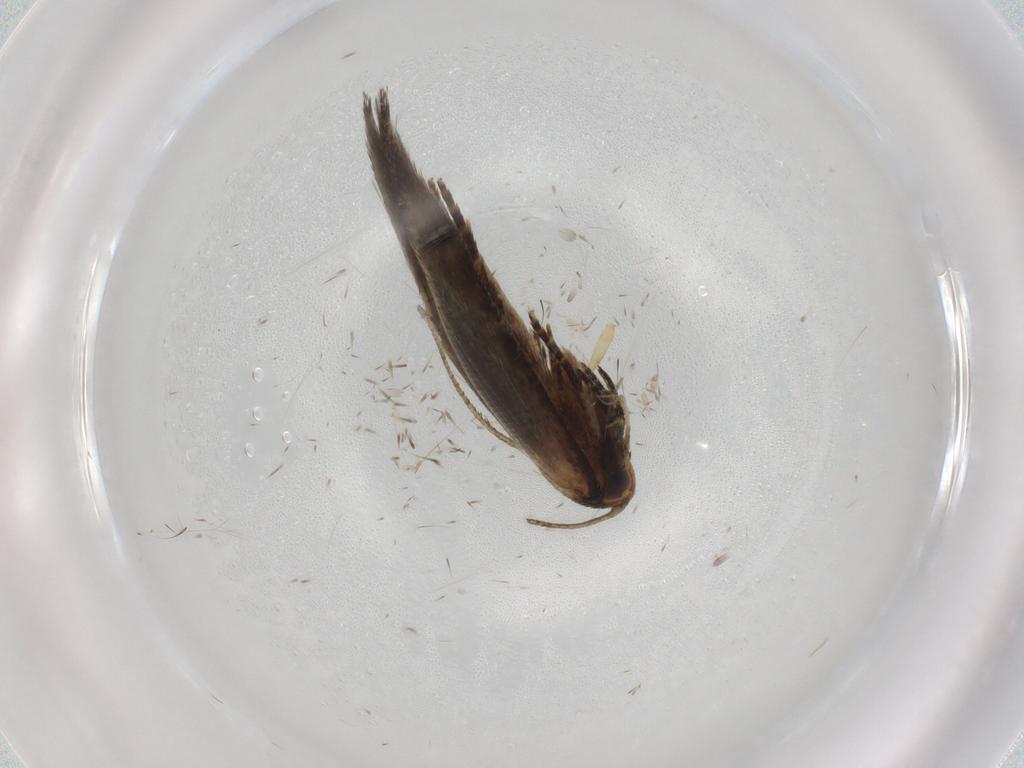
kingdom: Animalia
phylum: Arthropoda
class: Insecta
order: Lepidoptera
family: Cosmopterigidae
